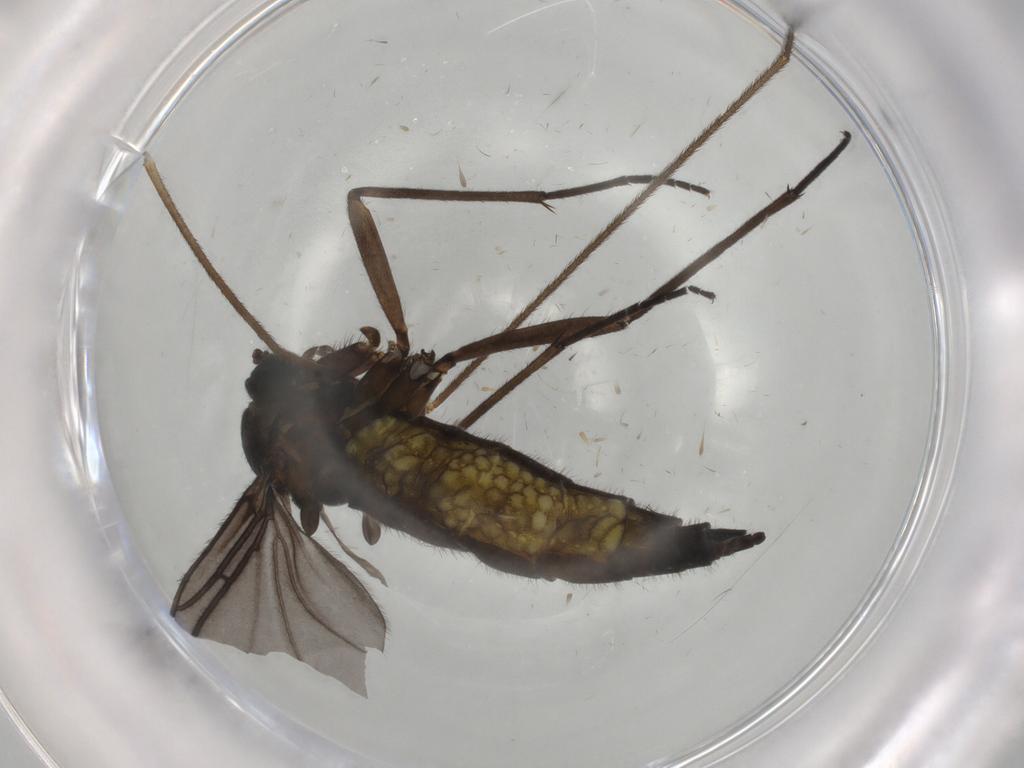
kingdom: Animalia
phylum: Arthropoda
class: Insecta
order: Diptera
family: Sciaridae
